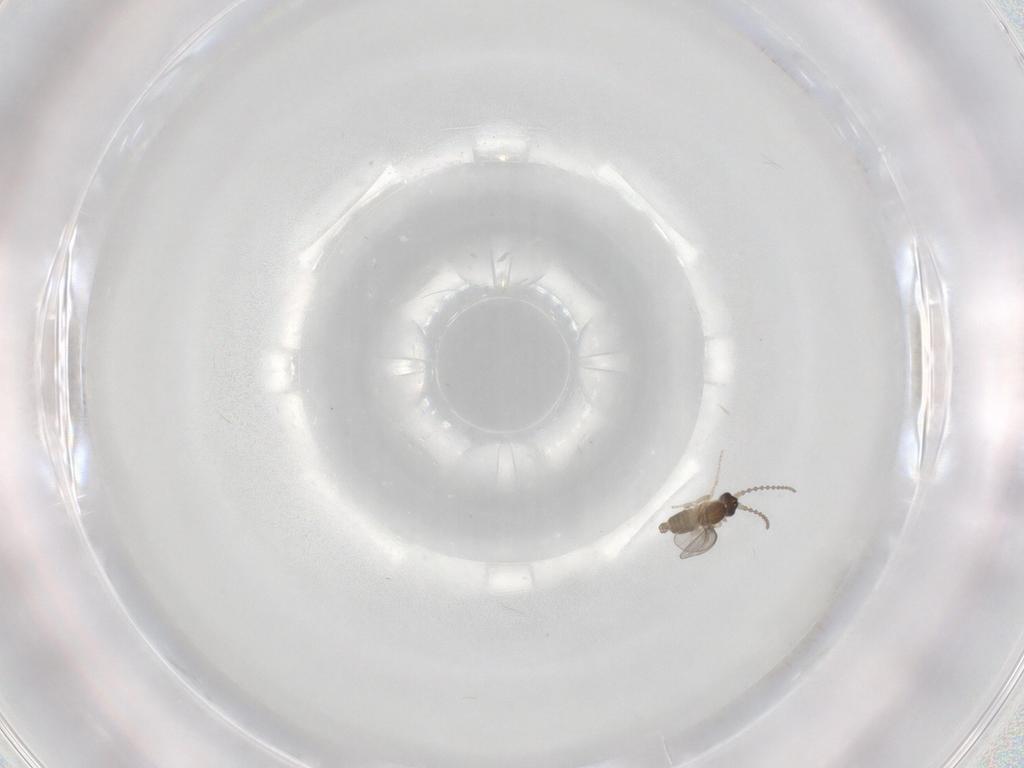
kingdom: Animalia
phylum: Arthropoda
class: Insecta
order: Diptera
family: Cecidomyiidae
